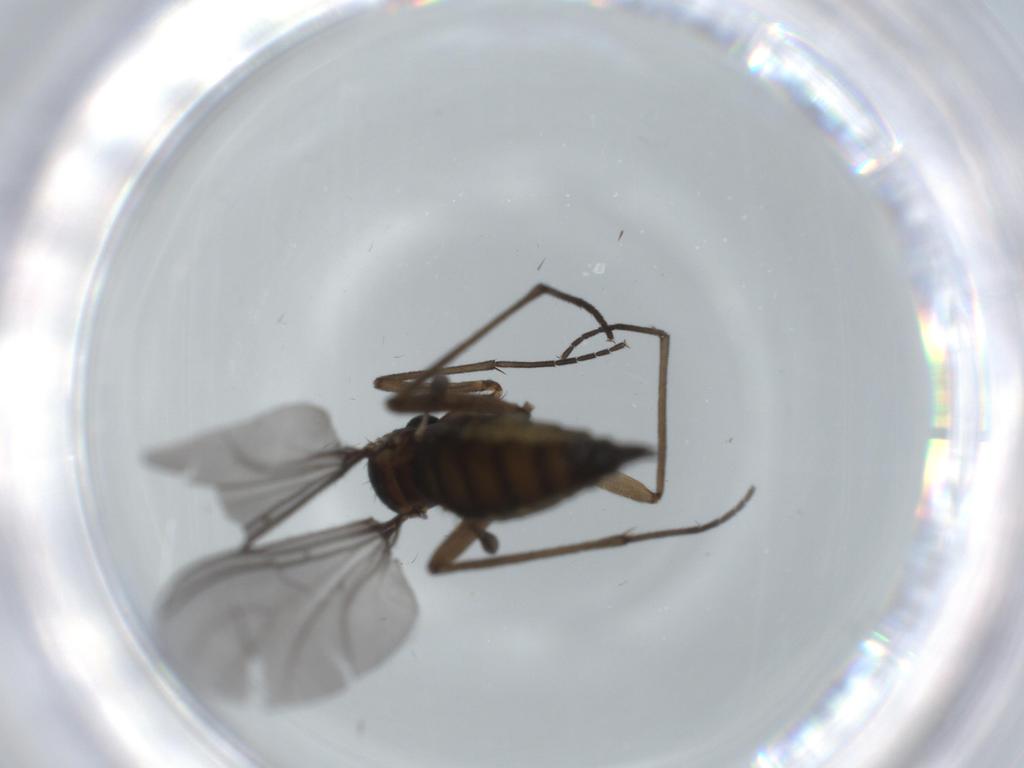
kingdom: Animalia
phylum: Arthropoda
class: Insecta
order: Diptera
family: Sciaridae
